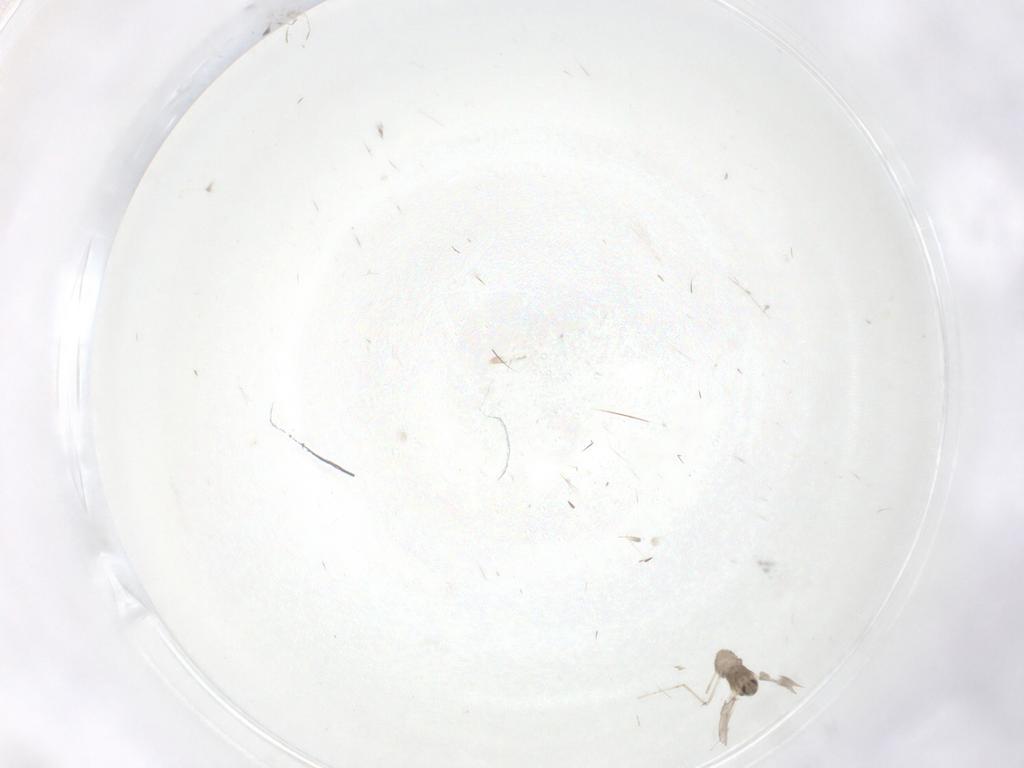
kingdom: Animalia
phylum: Arthropoda
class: Insecta
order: Diptera
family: Cecidomyiidae
